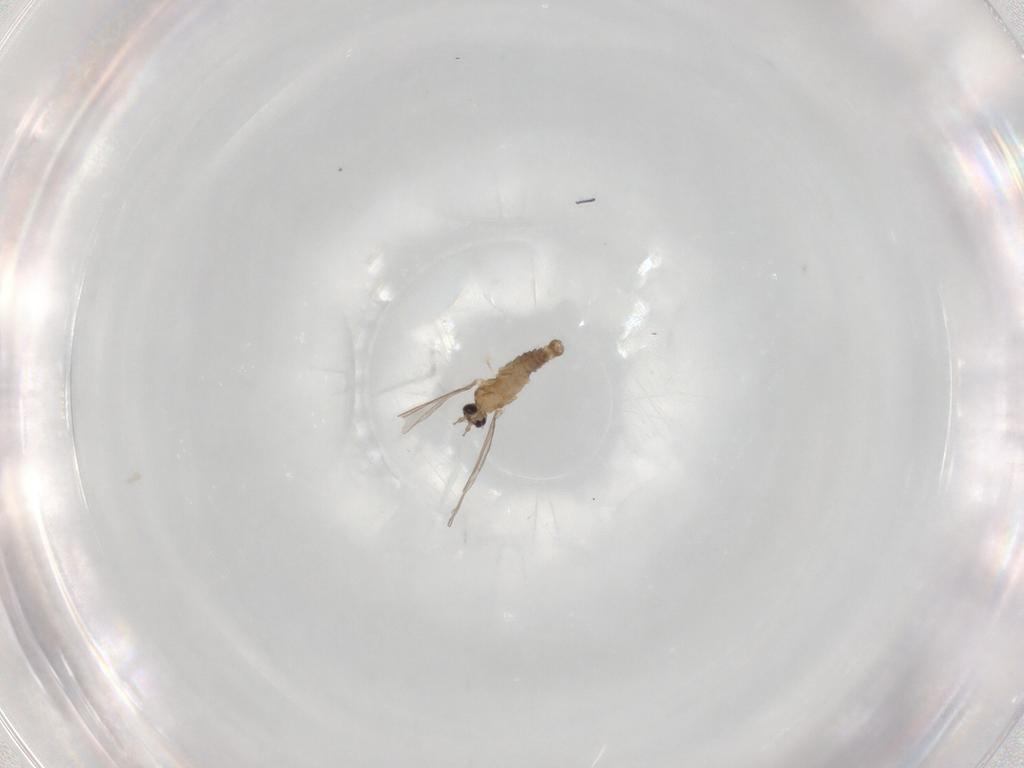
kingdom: Animalia
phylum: Arthropoda
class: Insecta
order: Diptera
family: Cecidomyiidae
